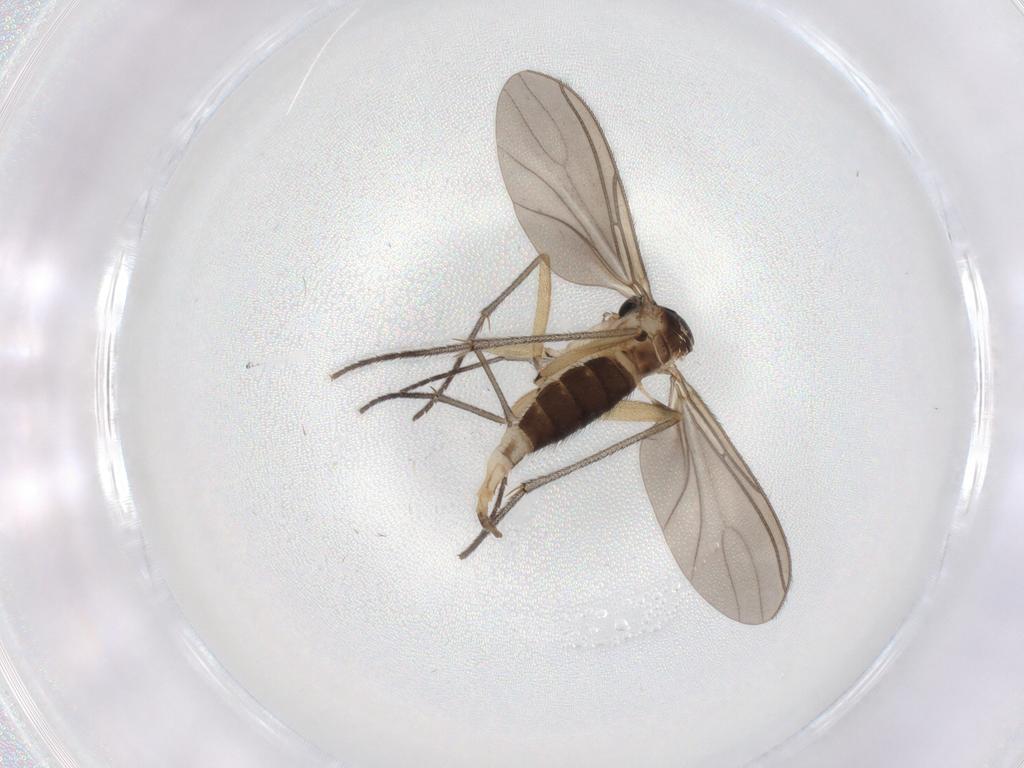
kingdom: Animalia
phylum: Arthropoda
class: Insecta
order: Diptera
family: Sciaridae
